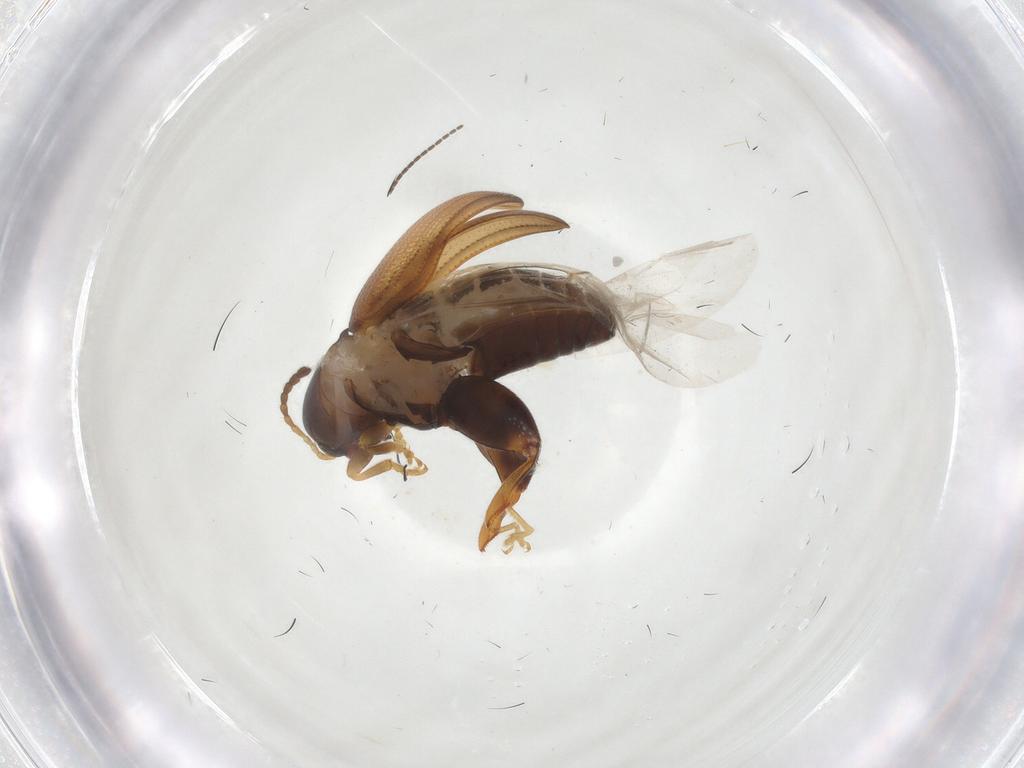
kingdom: Animalia
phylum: Arthropoda
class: Insecta
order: Coleoptera
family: Chrysomelidae
